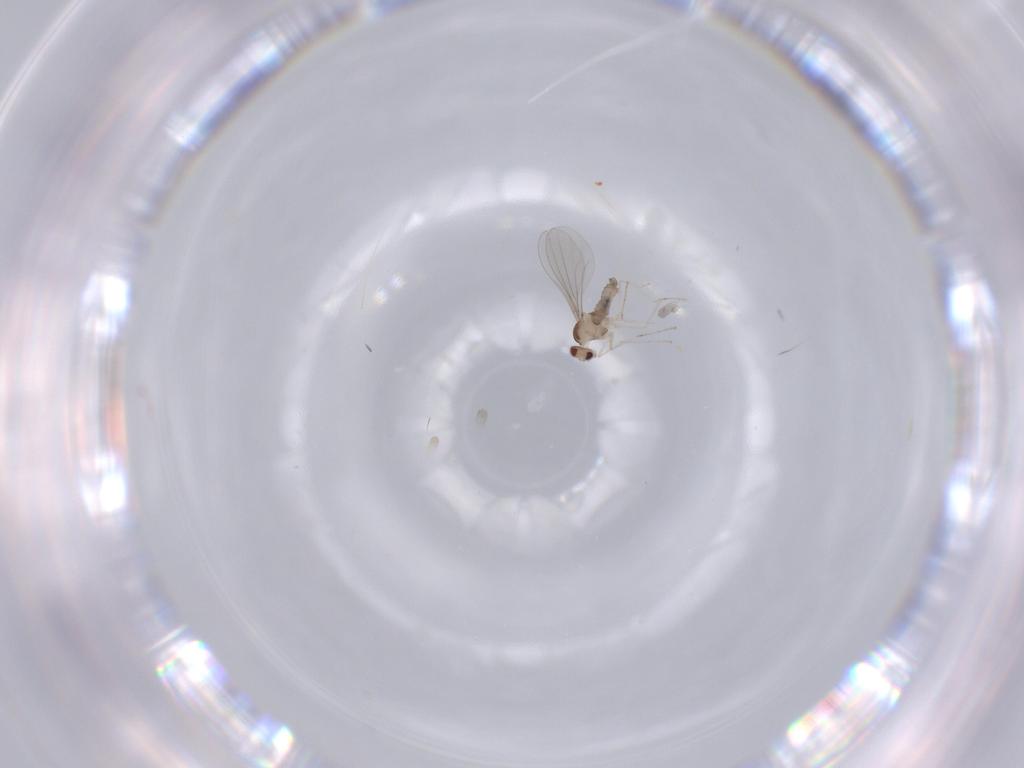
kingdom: Animalia
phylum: Arthropoda
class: Insecta
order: Diptera
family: Cecidomyiidae
